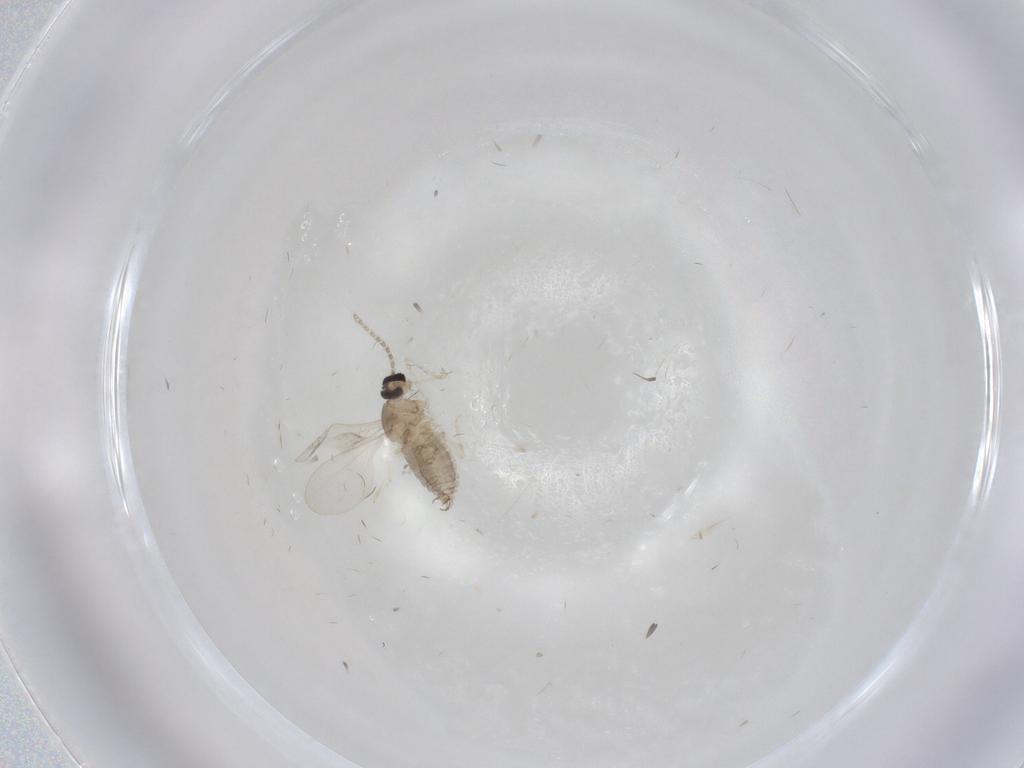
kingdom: Animalia
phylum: Arthropoda
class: Insecta
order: Diptera
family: Cecidomyiidae
